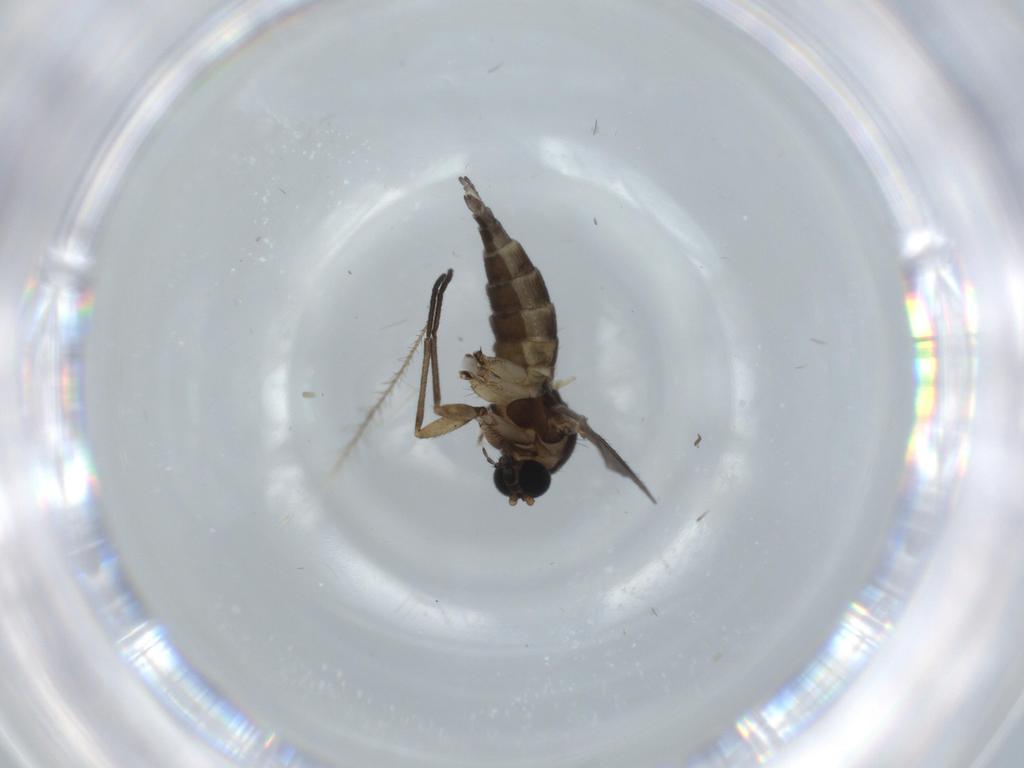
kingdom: Animalia
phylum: Arthropoda
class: Insecta
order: Diptera
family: Sciaridae
